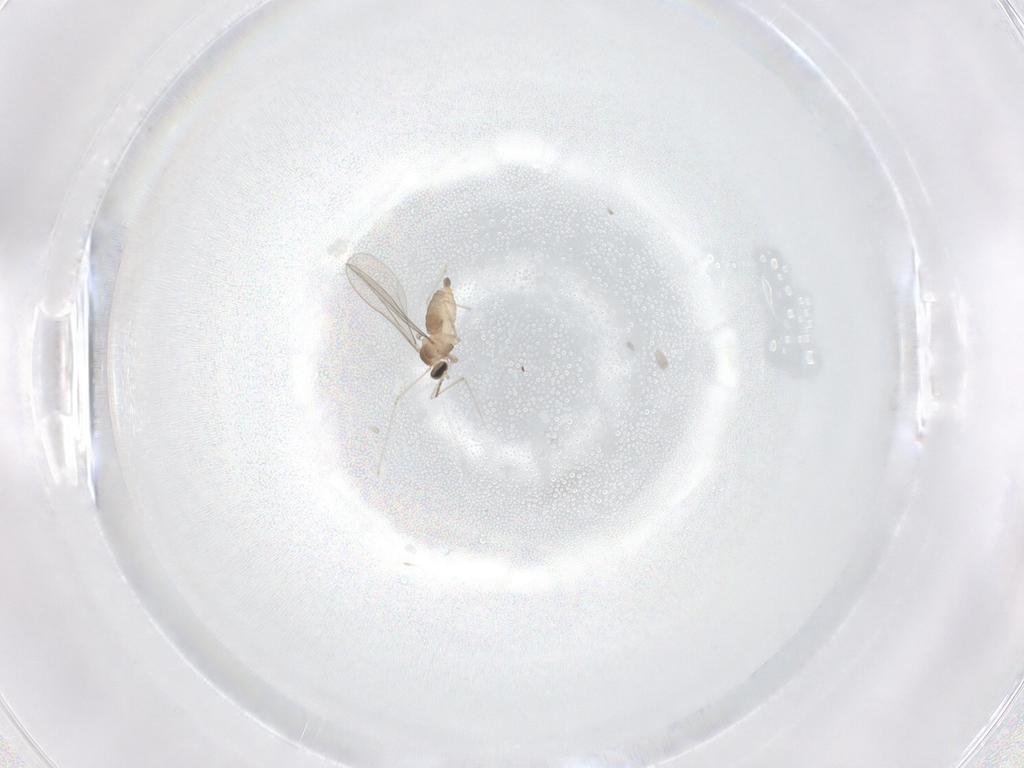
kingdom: Animalia
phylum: Arthropoda
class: Insecta
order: Diptera
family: Cecidomyiidae
